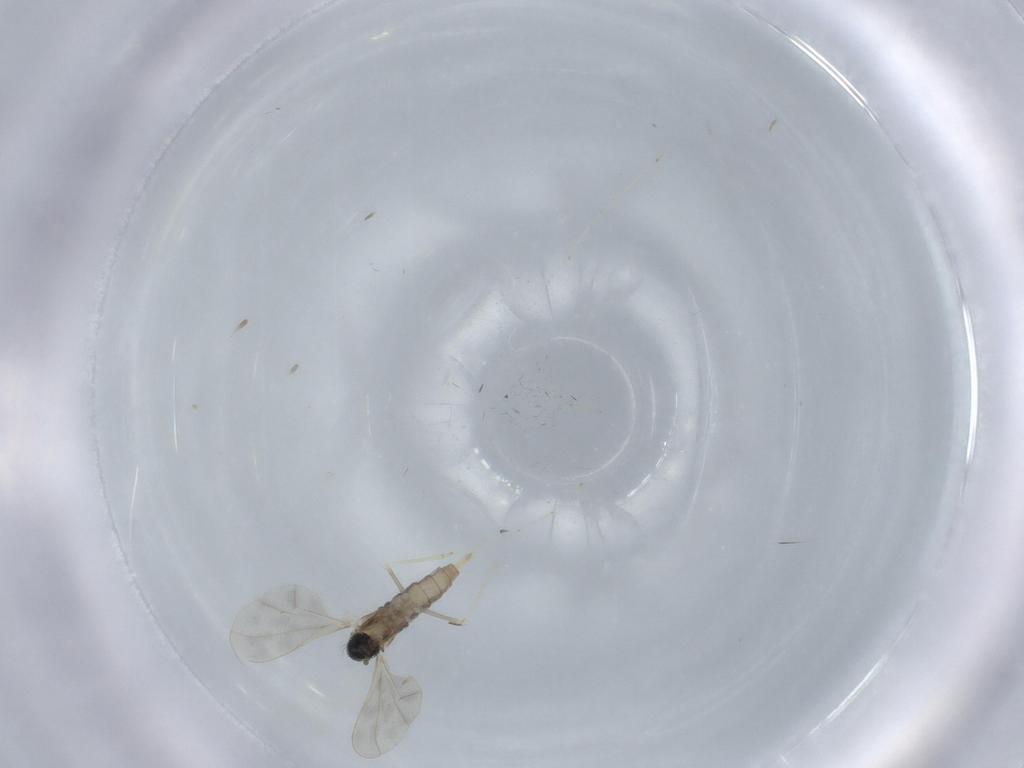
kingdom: Animalia
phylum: Arthropoda
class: Insecta
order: Diptera
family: Cecidomyiidae
